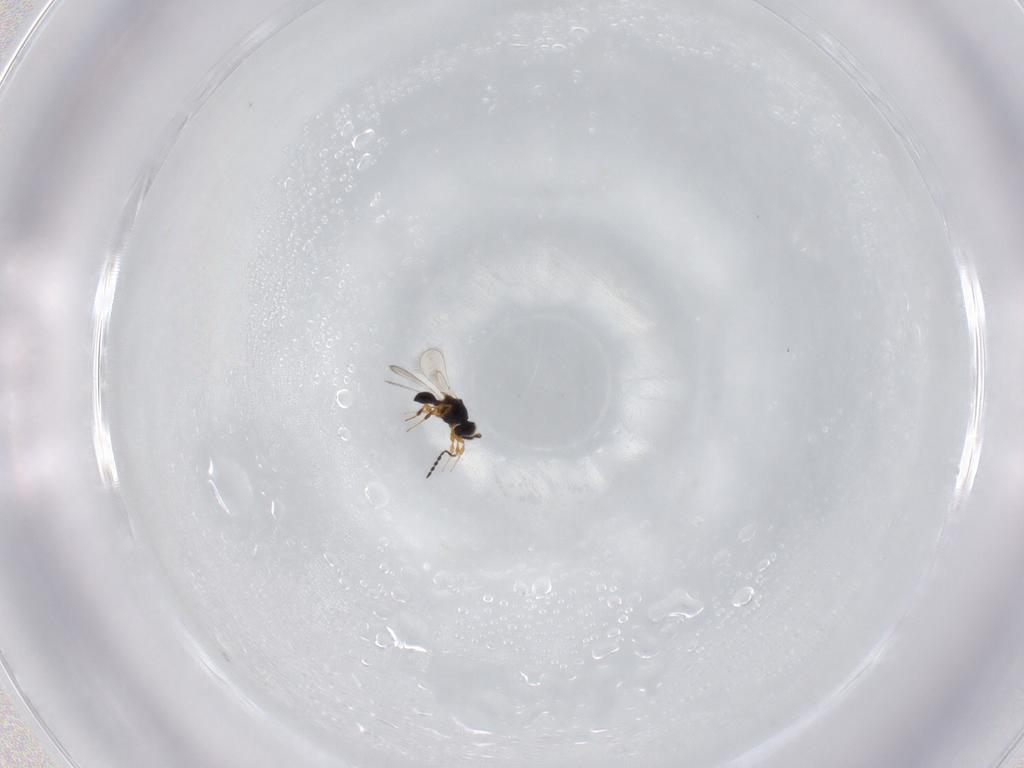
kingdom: Animalia
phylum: Arthropoda
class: Insecta
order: Hymenoptera
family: Platygastridae
